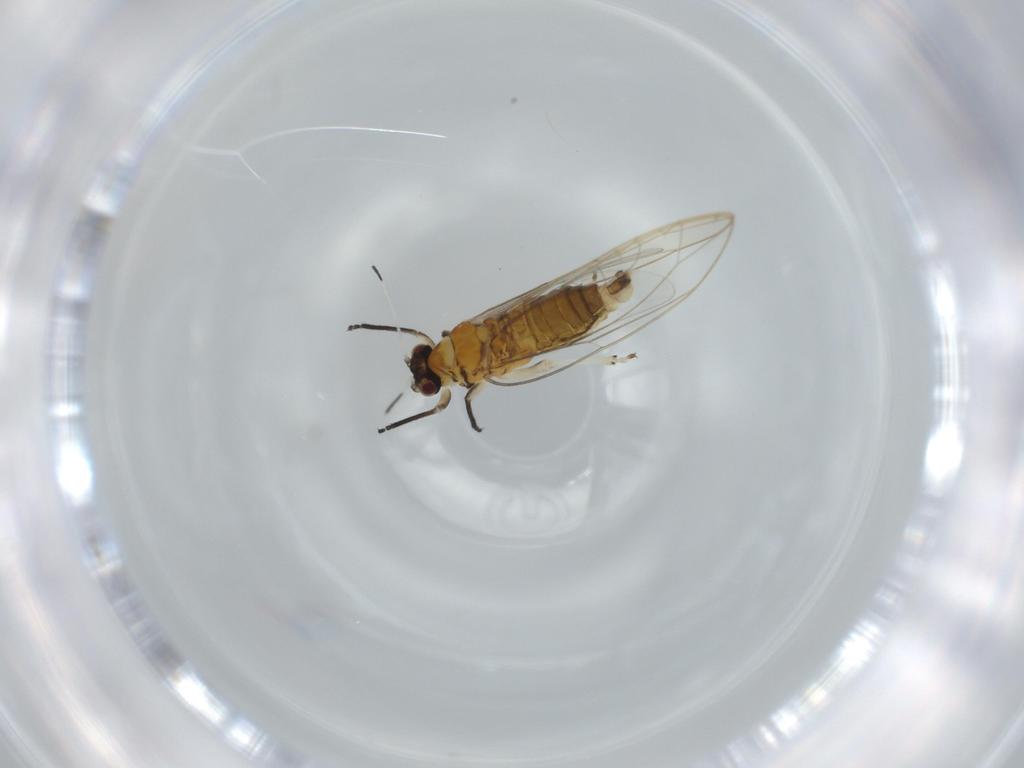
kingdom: Animalia
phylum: Arthropoda
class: Insecta
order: Hemiptera
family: Triozidae
